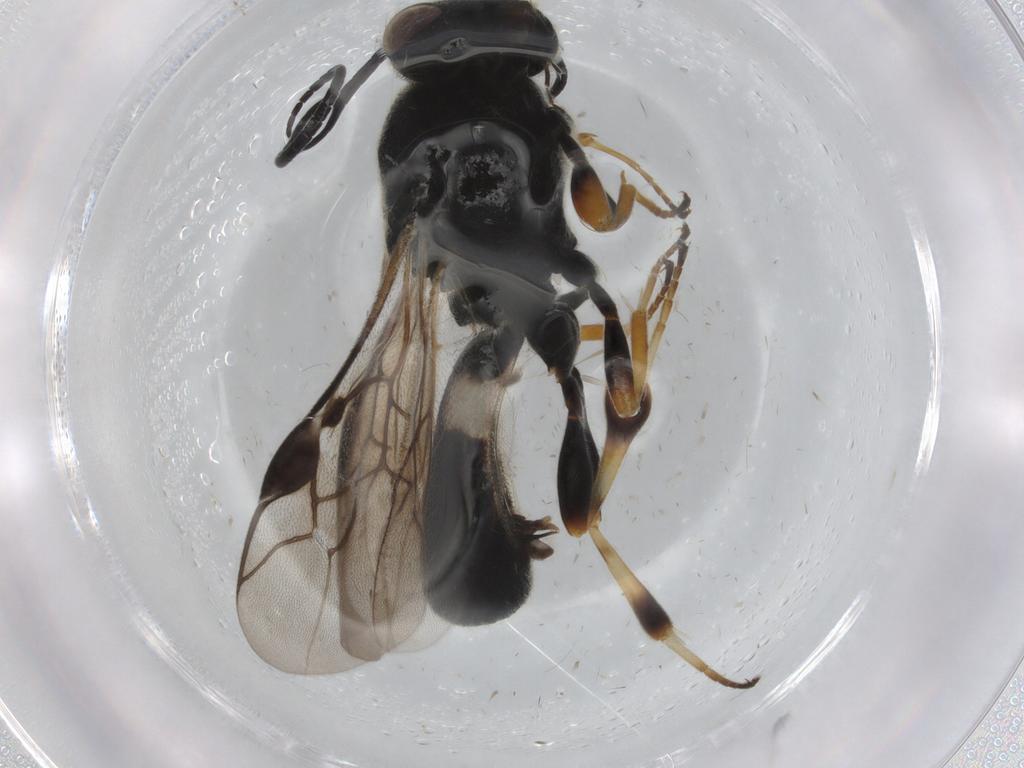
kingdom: Animalia
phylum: Arthropoda
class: Insecta
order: Hymenoptera
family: Braconidae
